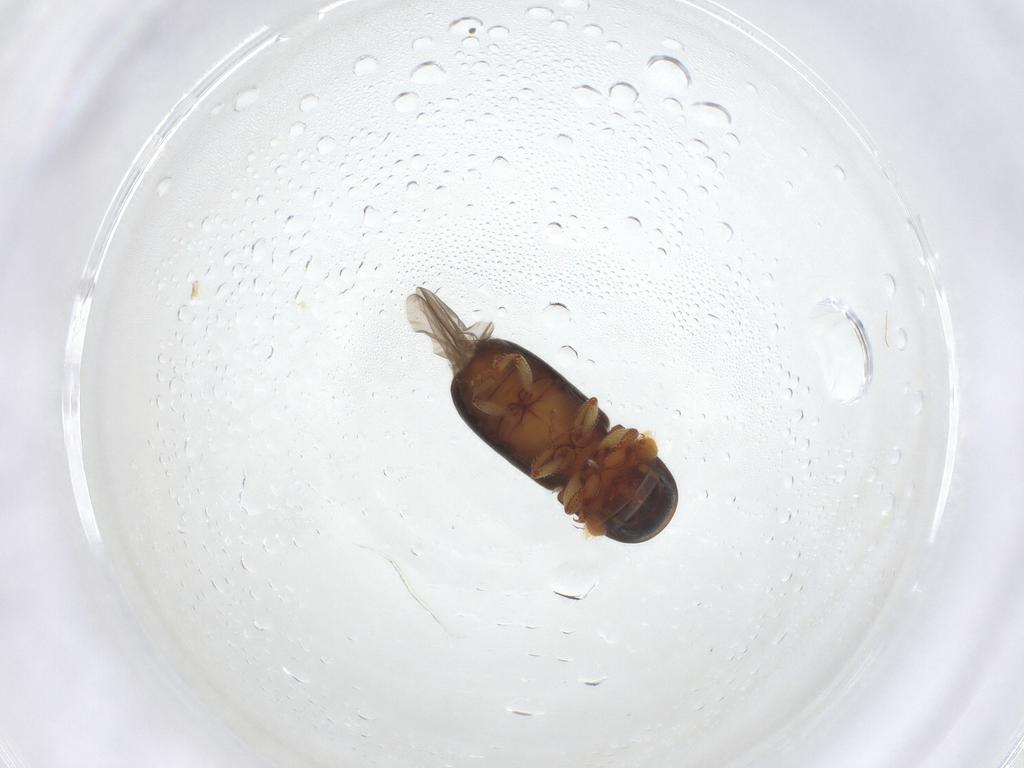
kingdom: Animalia
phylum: Arthropoda
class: Insecta
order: Coleoptera
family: Curculionidae
